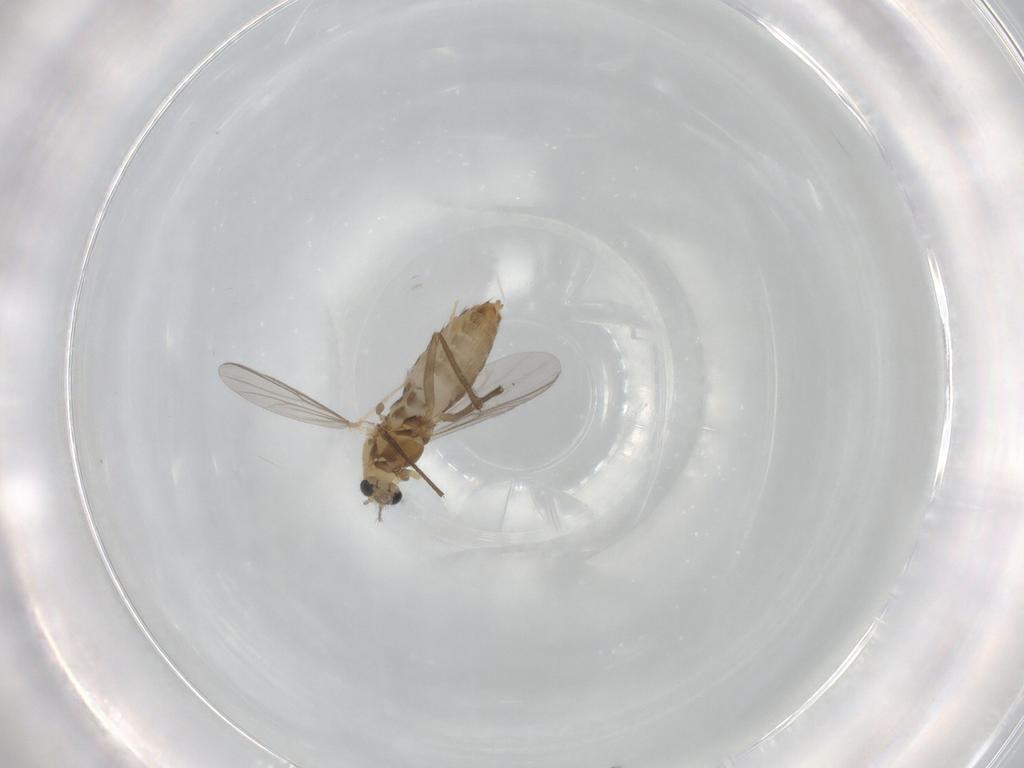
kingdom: Animalia
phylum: Arthropoda
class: Insecta
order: Diptera
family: Chironomidae
